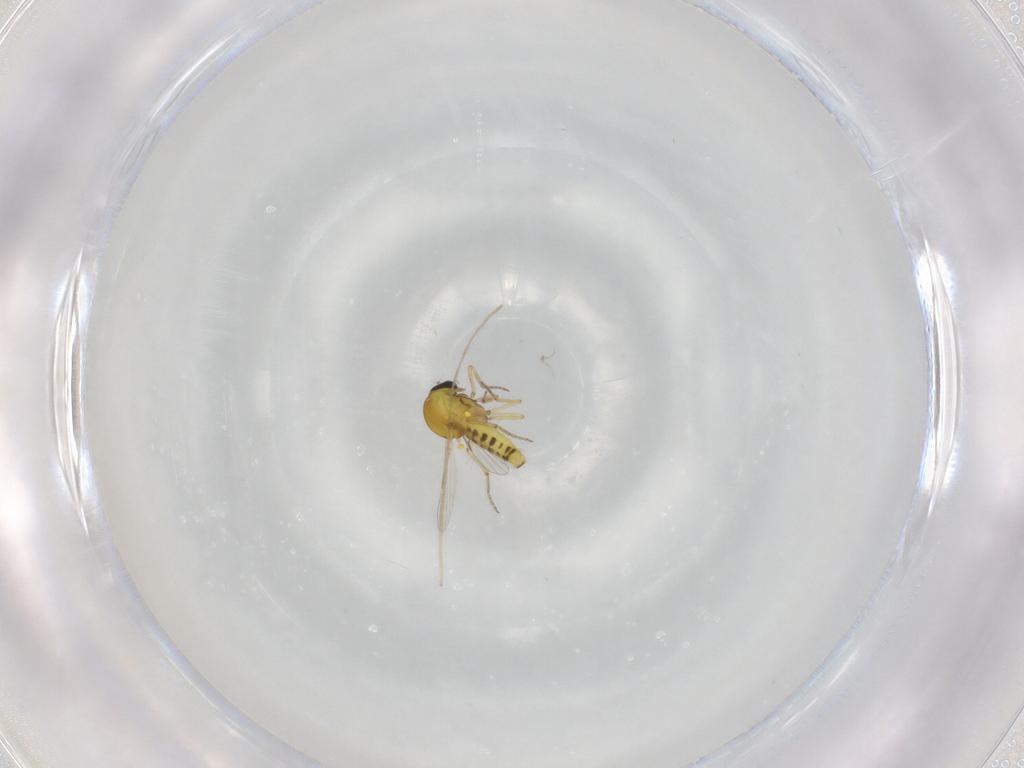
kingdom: Animalia
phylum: Arthropoda
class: Insecta
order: Diptera
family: Chironomidae
